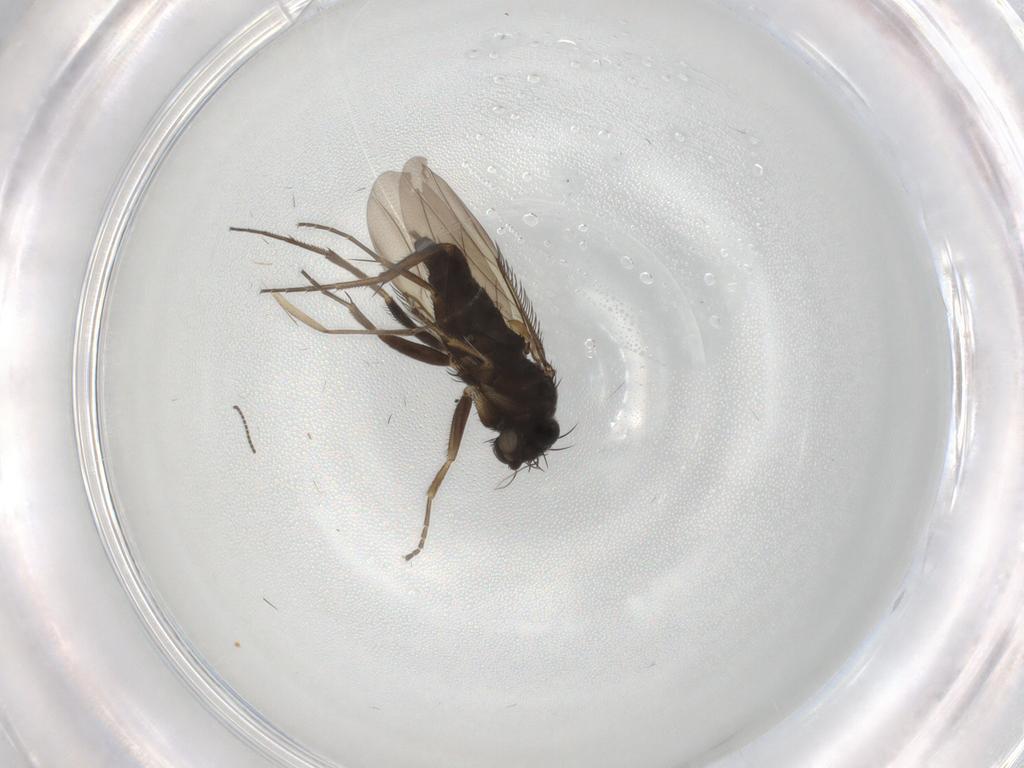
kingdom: Animalia
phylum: Arthropoda
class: Insecta
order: Diptera
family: Phoridae
